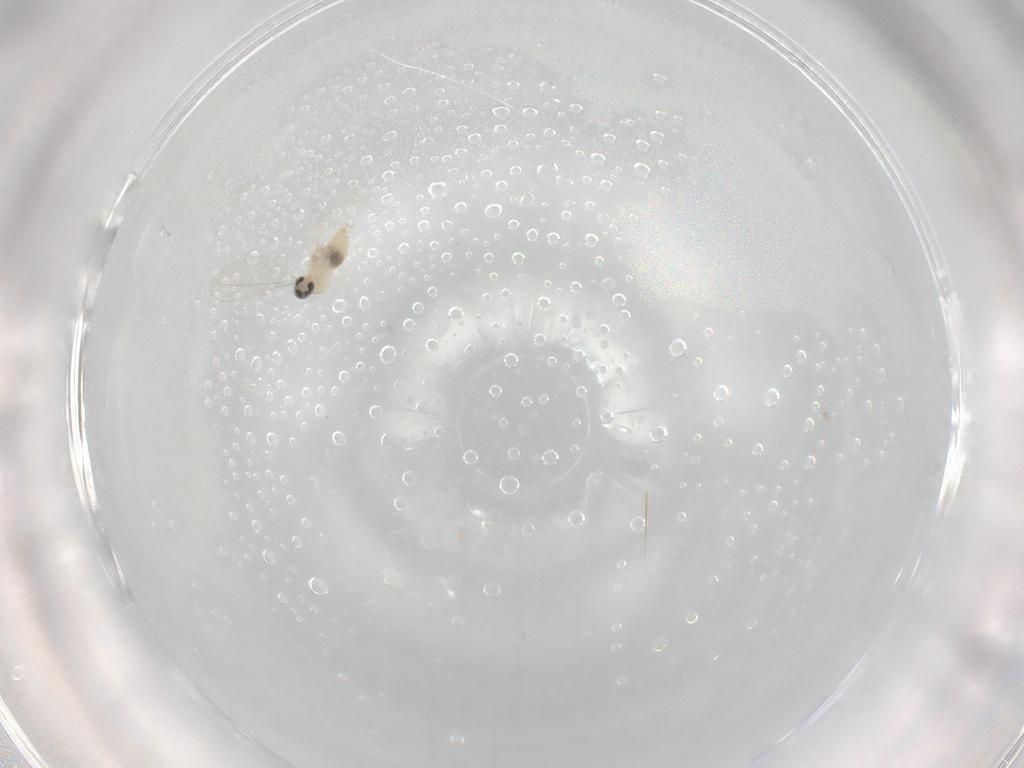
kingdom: Animalia
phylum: Arthropoda
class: Insecta
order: Diptera
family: Cecidomyiidae
